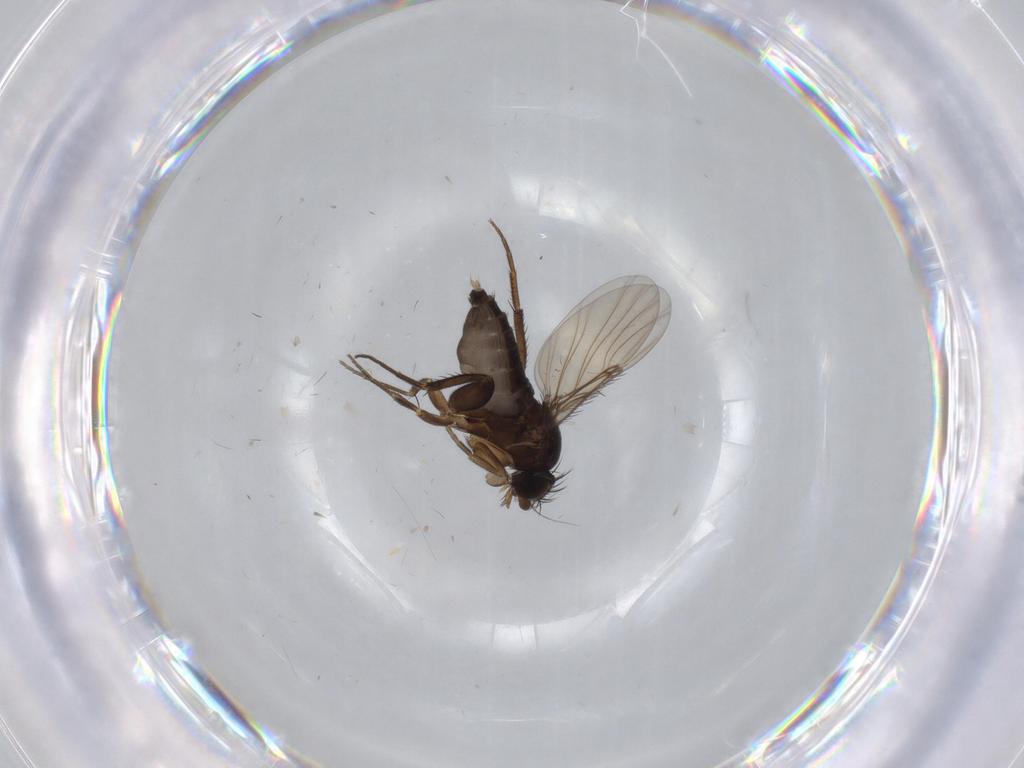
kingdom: Animalia
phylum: Arthropoda
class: Insecta
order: Diptera
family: Phoridae
